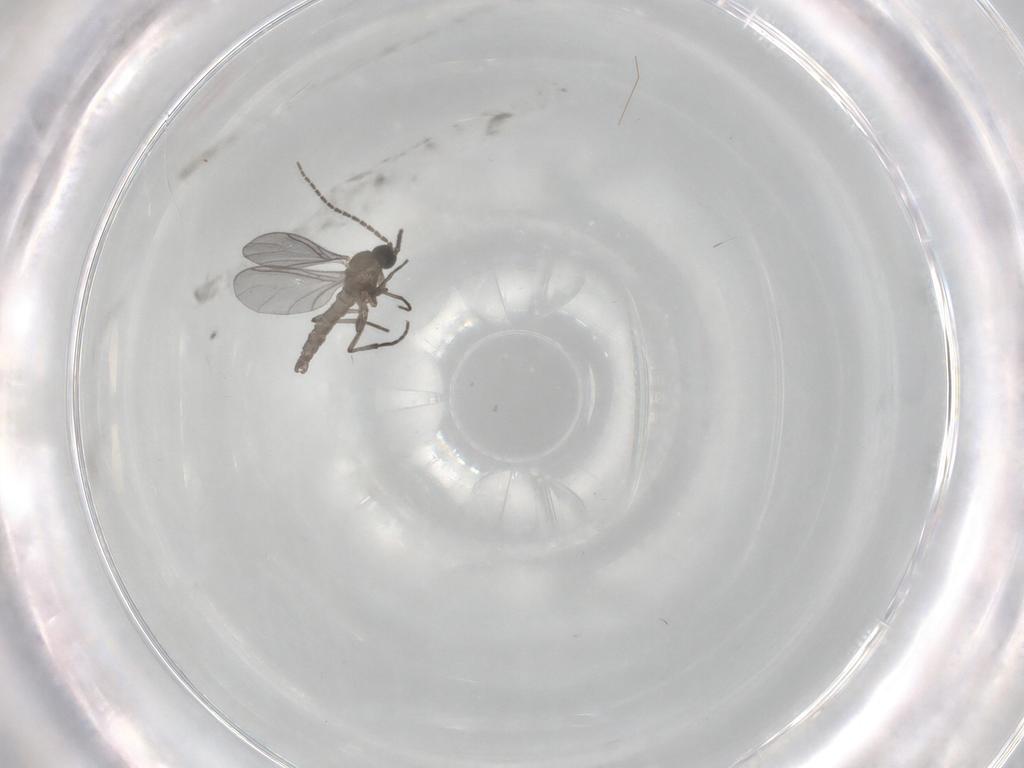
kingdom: Animalia
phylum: Arthropoda
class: Insecta
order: Diptera
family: Sciaridae
